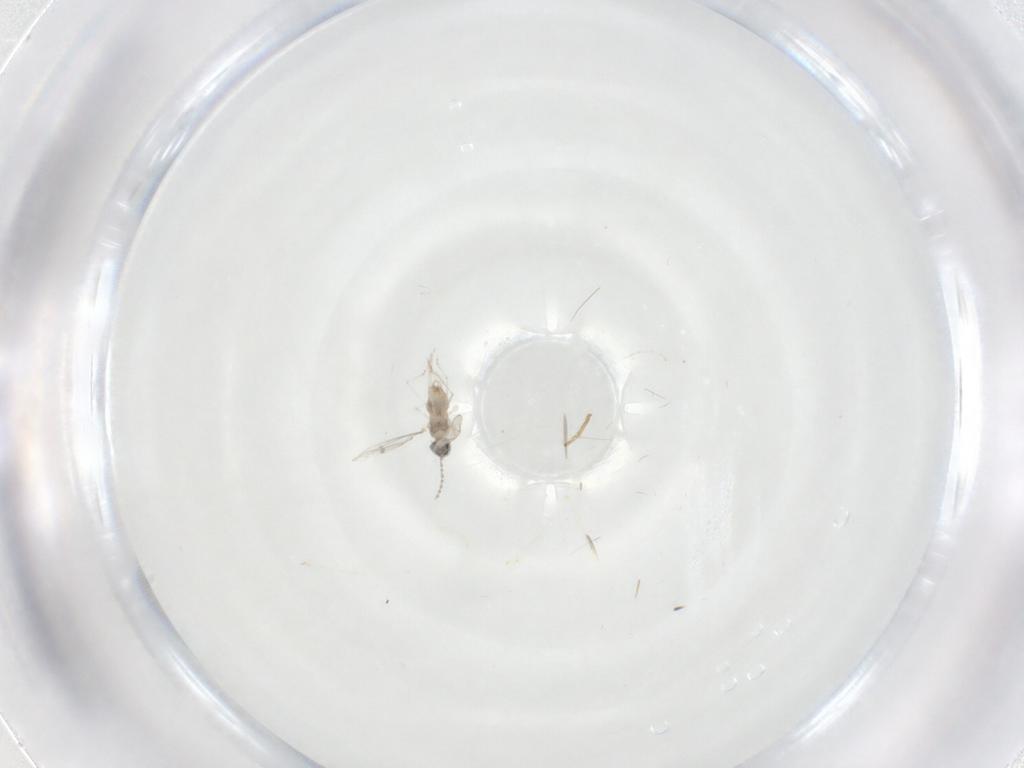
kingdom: Animalia
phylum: Arthropoda
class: Insecta
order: Diptera
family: Cecidomyiidae
